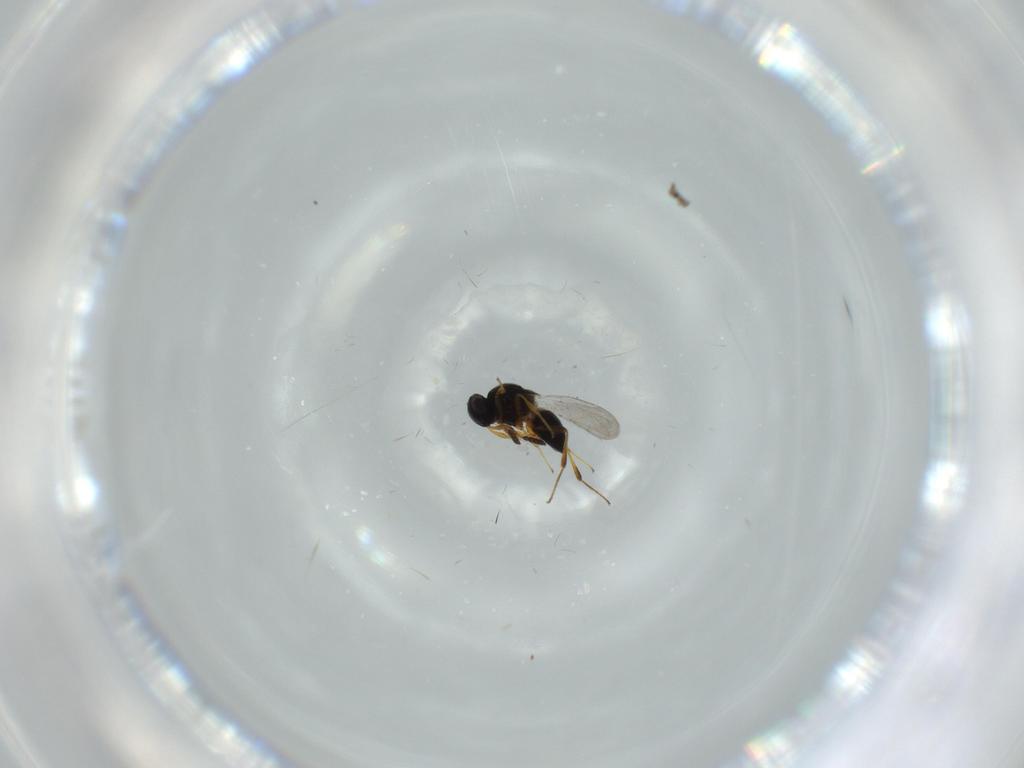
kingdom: Animalia
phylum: Arthropoda
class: Insecta
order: Hymenoptera
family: Platygastridae
